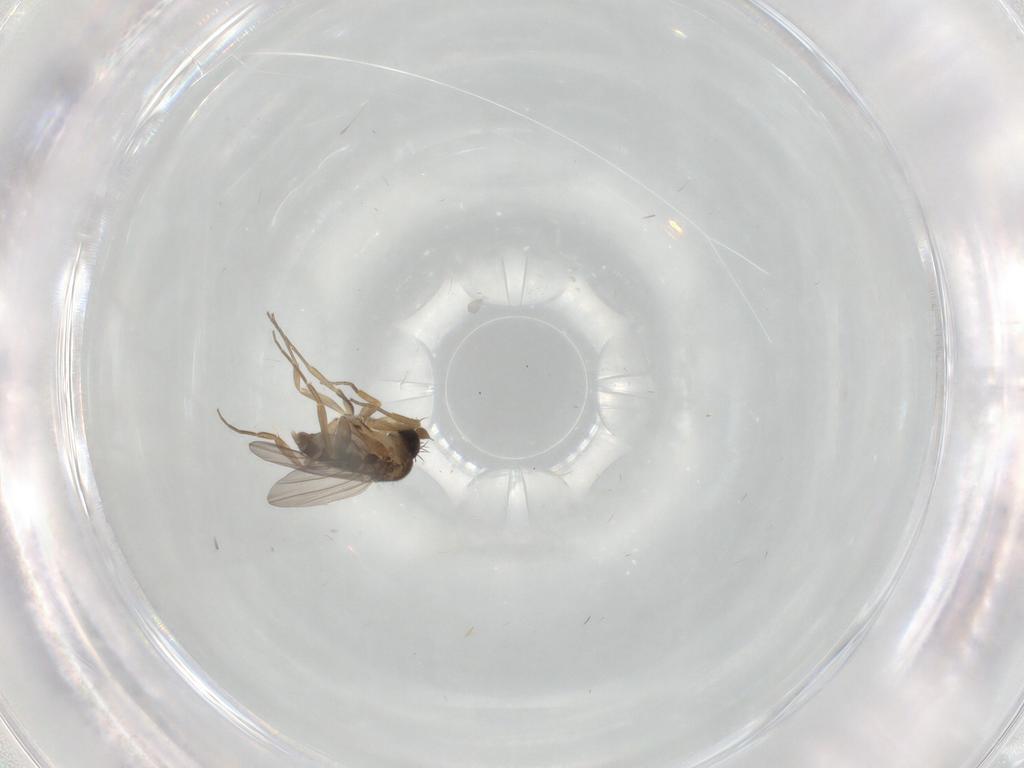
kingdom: Animalia
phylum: Arthropoda
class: Insecta
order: Diptera
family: Phoridae
